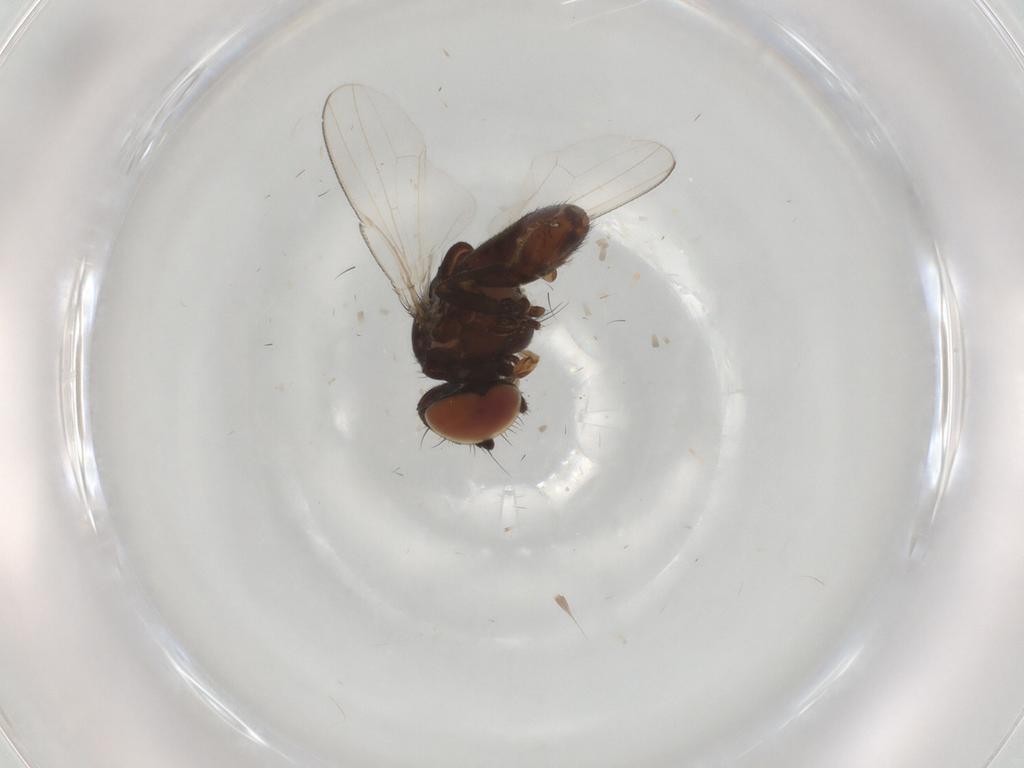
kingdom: Animalia
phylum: Arthropoda
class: Insecta
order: Diptera
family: Milichiidae
